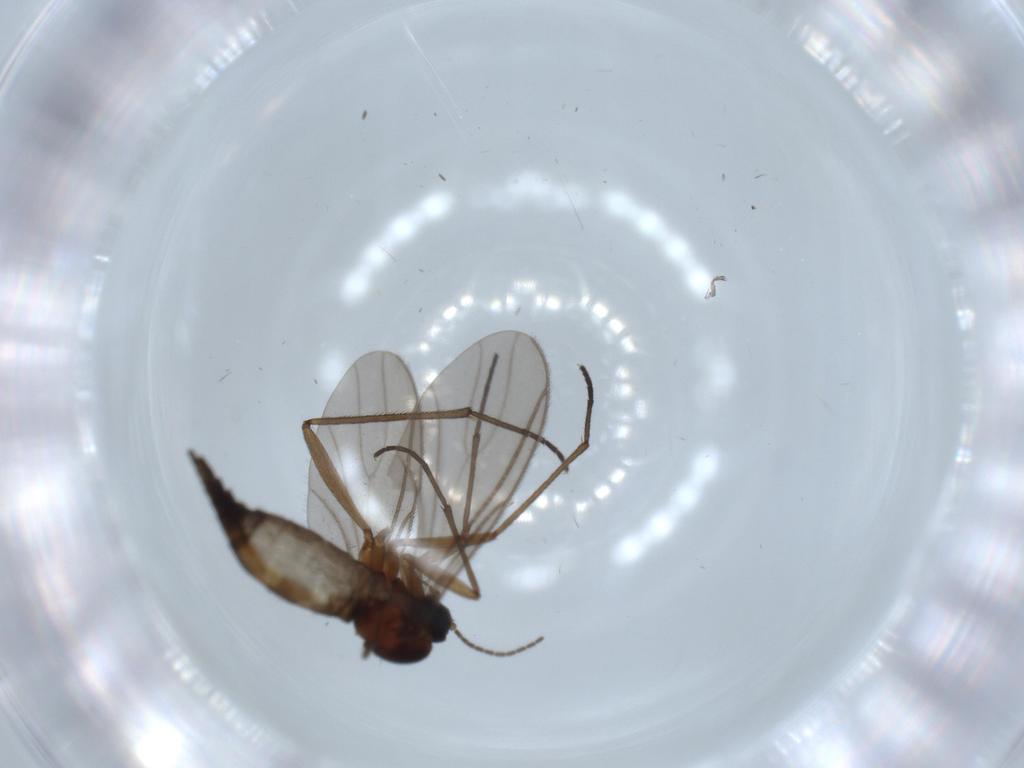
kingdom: Animalia
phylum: Arthropoda
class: Insecta
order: Diptera
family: Sciaridae
